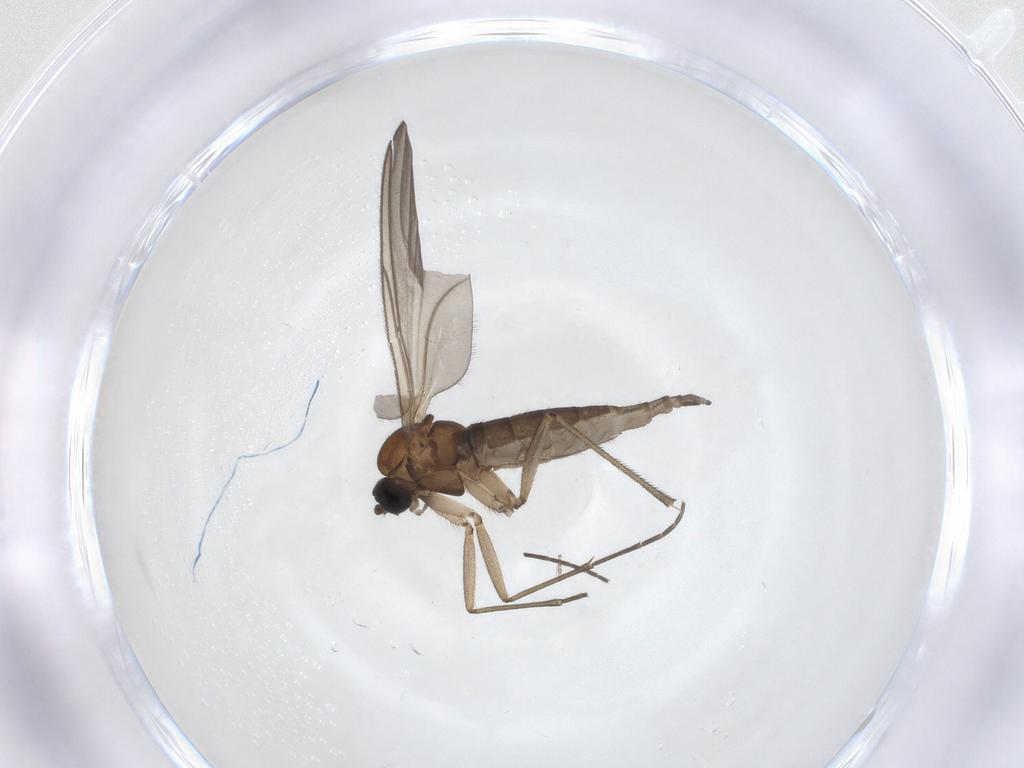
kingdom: Animalia
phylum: Arthropoda
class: Insecta
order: Diptera
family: Sciaridae
